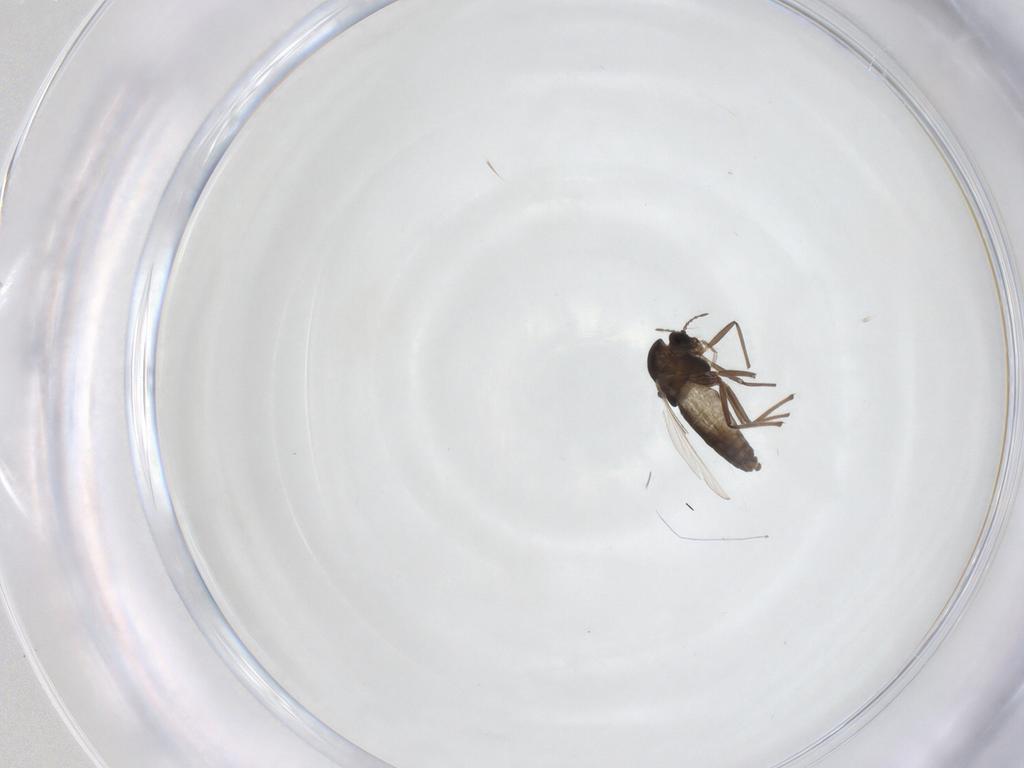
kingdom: Animalia
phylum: Arthropoda
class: Insecta
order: Diptera
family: Chironomidae
